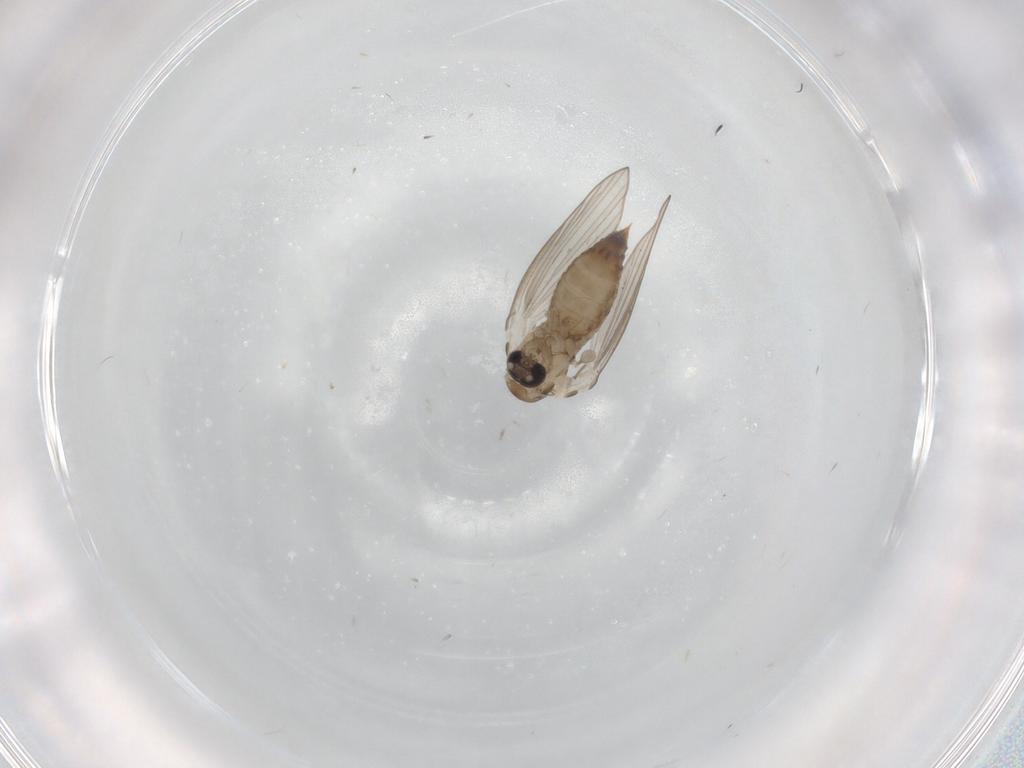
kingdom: Animalia
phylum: Arthropoda
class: Insecta
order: Diptera
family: Psychodidae
